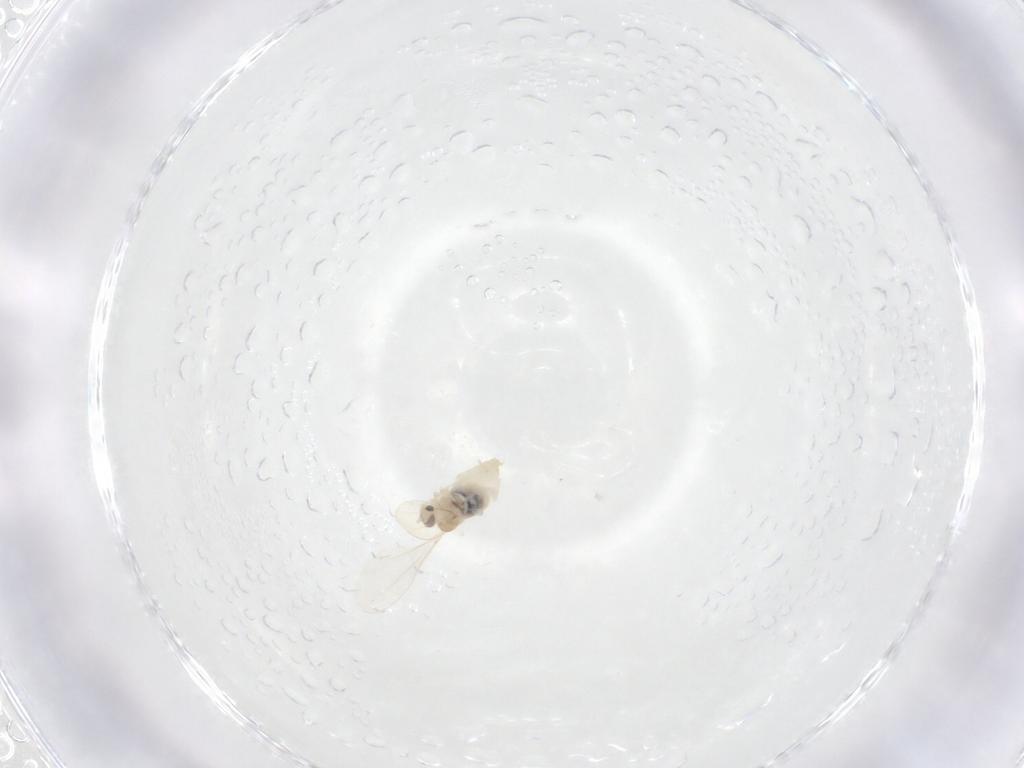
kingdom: Animalia
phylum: Arthropoda
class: Insecta
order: Diptera
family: Cecidomyiidae
